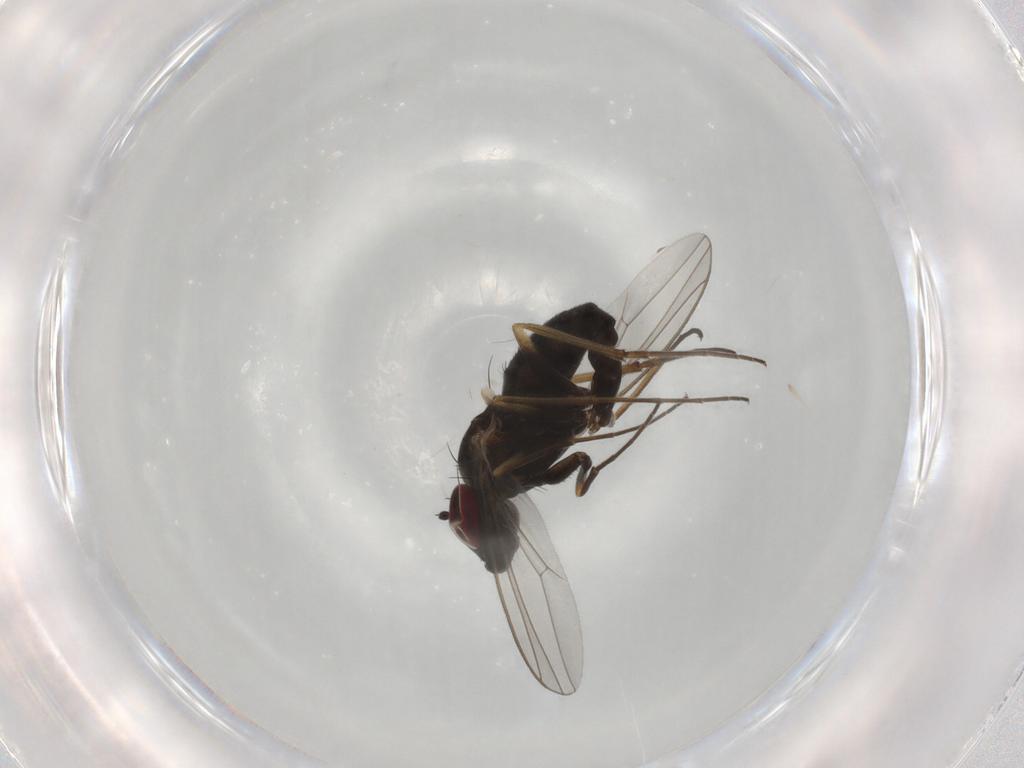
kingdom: Animalia
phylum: Arthropoda
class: Insecta
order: Diptera
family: Dolichopodidae
